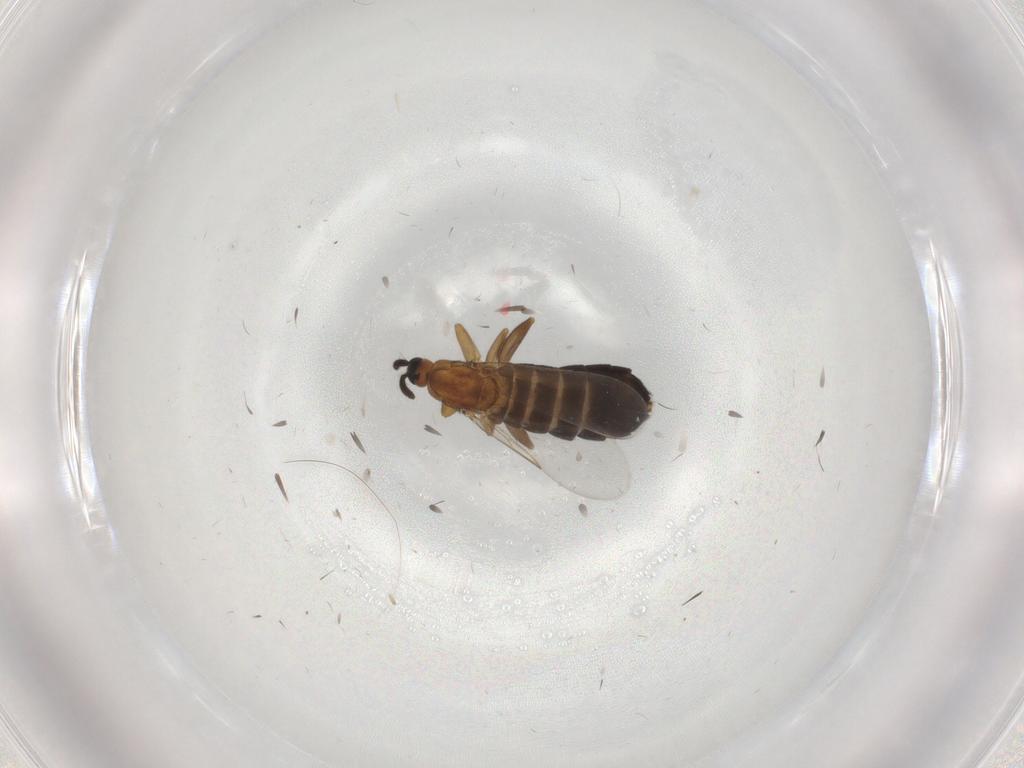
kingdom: Animalia
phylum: Arthropoda
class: Insecta
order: Diptera
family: Scatopsidae
